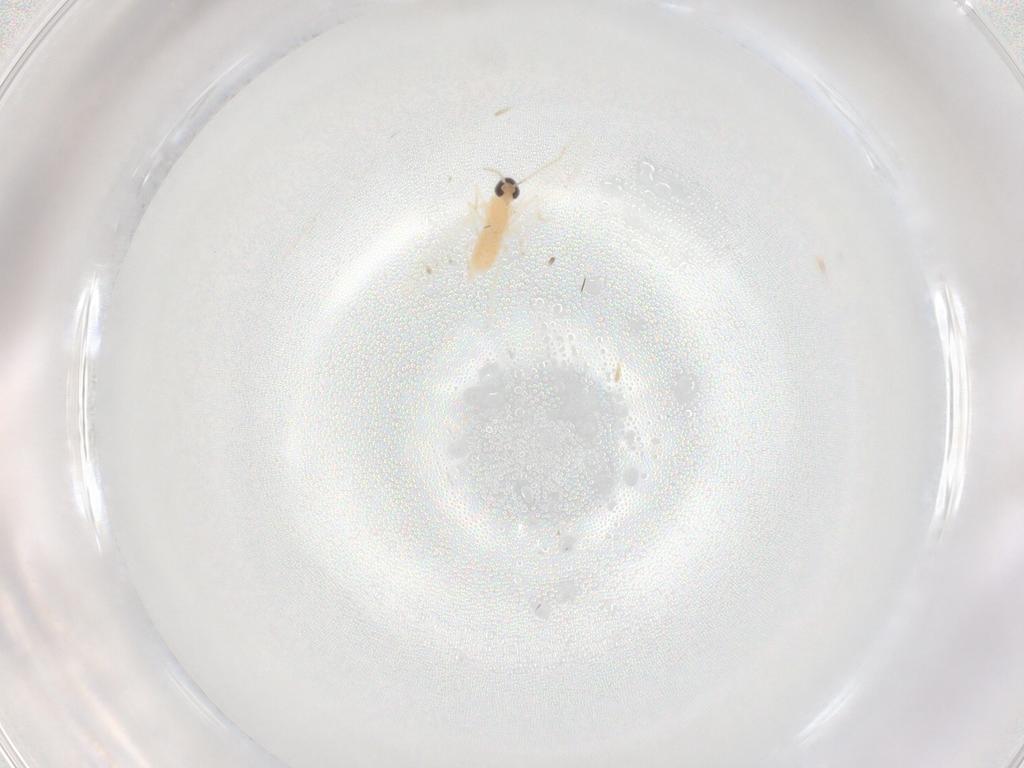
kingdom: Animalia
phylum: Arthropoda
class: Insecta
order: Diptera
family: Cecidomyiidae
